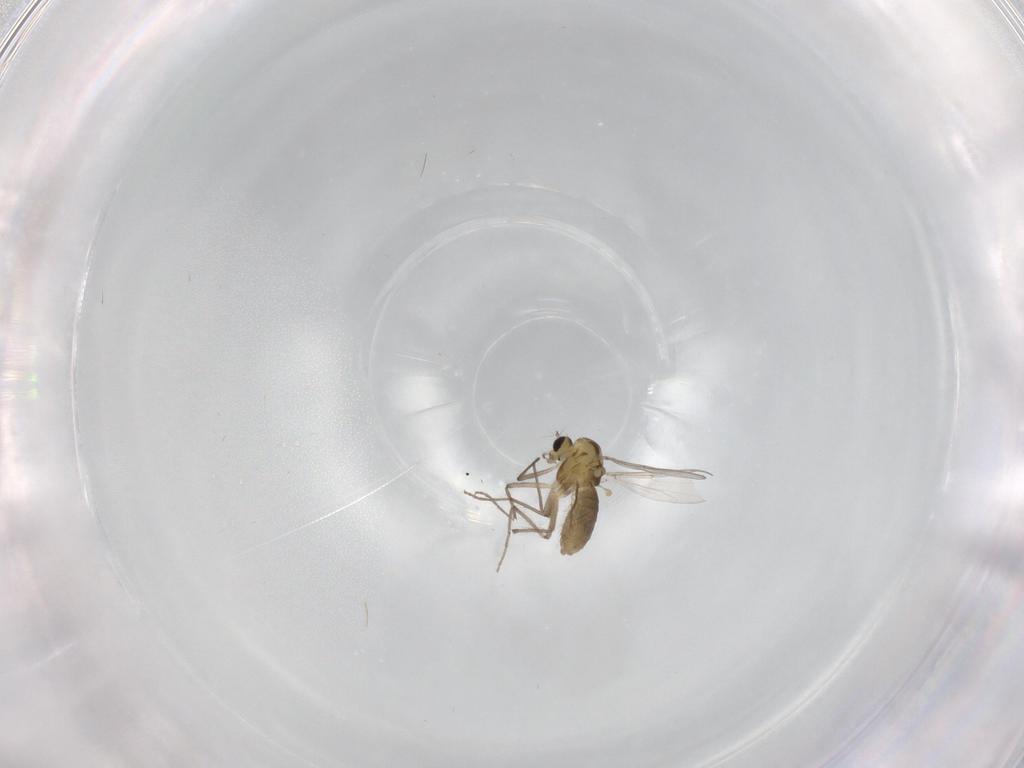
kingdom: Animalia
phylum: Arthropoda
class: Insecta
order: Diptera
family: Chironomidae
